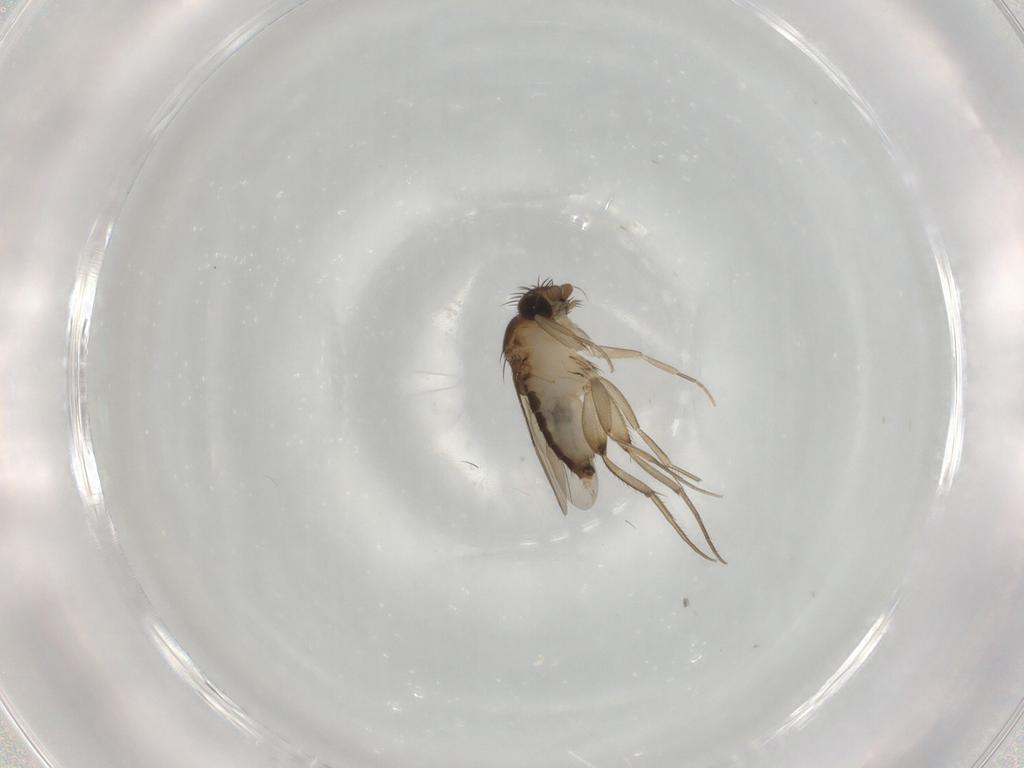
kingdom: Animalia
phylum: Arthropoda
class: Insecta
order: Diptera
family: Phoridae
